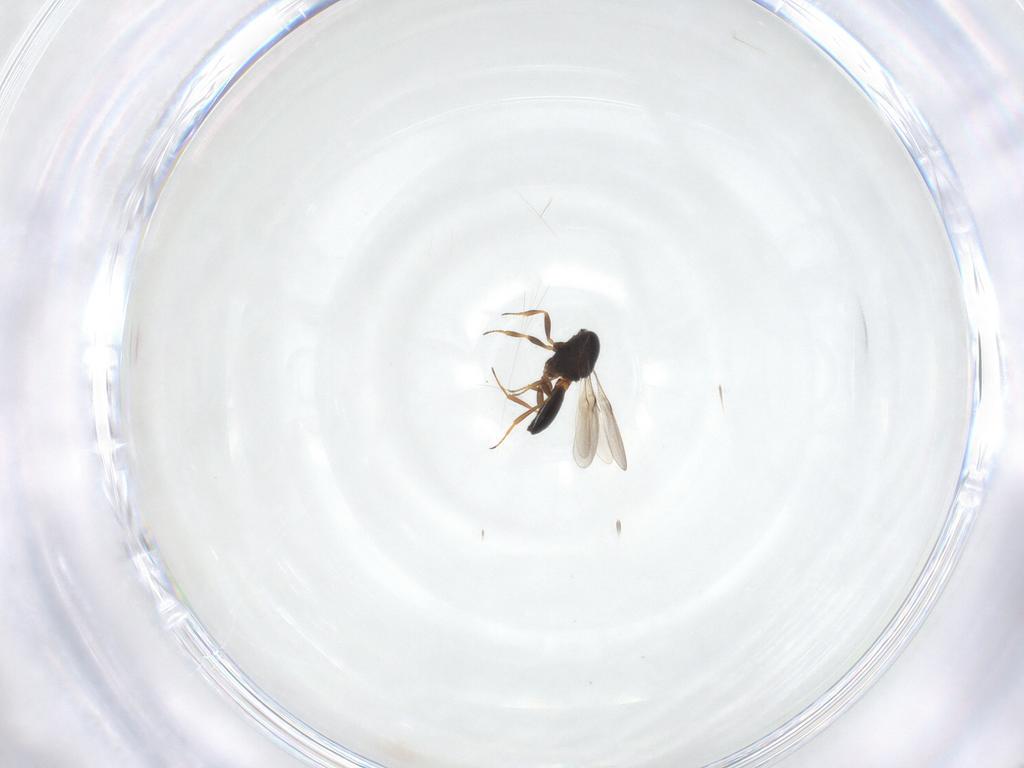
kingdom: Animalia
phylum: Arthropoda
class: Insecta
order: Hymenoptera
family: Scelionidae
